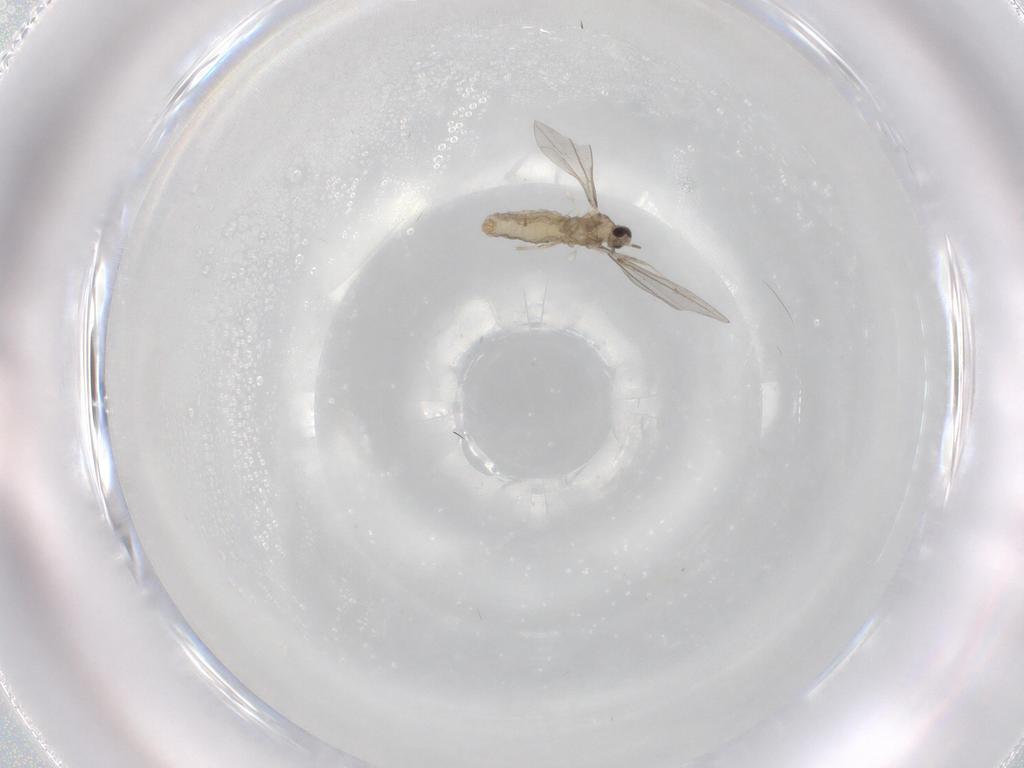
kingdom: Animalia
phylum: Arthropoda
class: Insecta
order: Diptera
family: Cecidomyiidae
